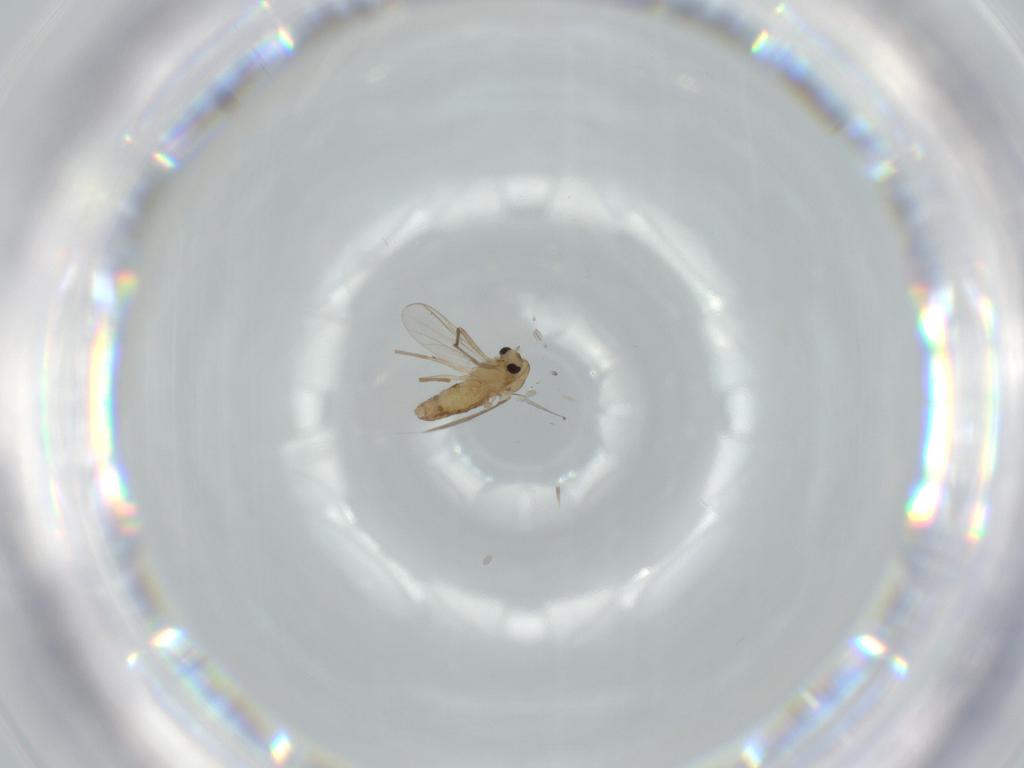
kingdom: Animalia
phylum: Arthropoda
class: Insecta
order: Diptera
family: Chironomidae
